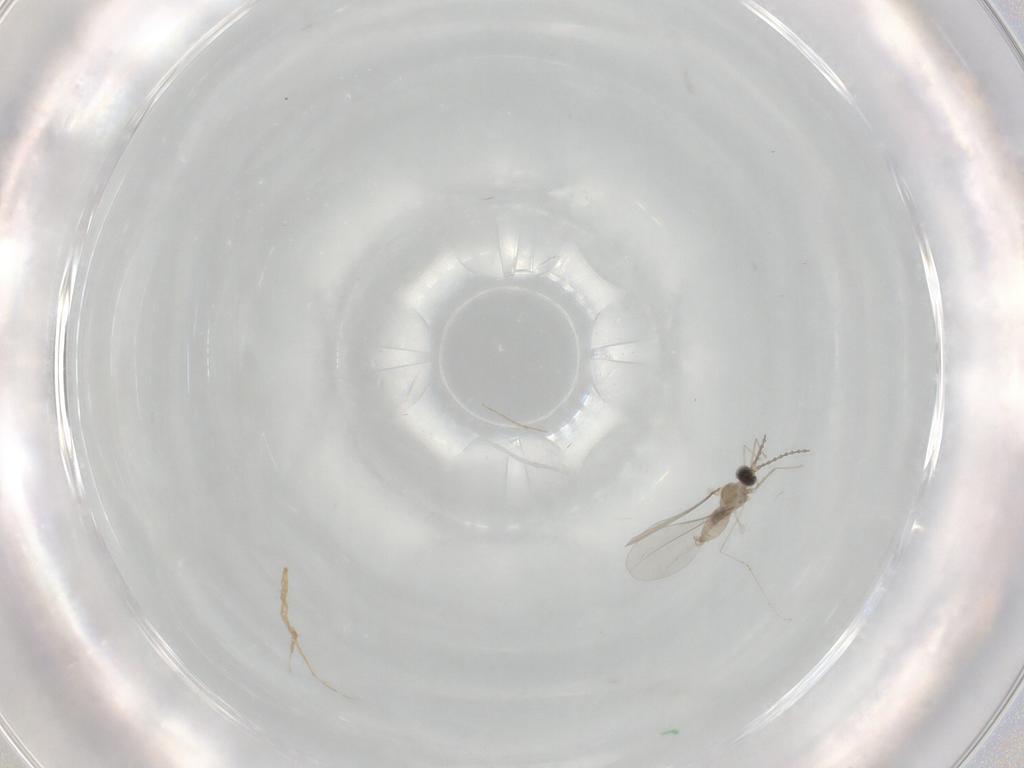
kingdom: Animalia
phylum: Arthropoda
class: Insecta
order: Diptera
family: Cecidomyiidae
